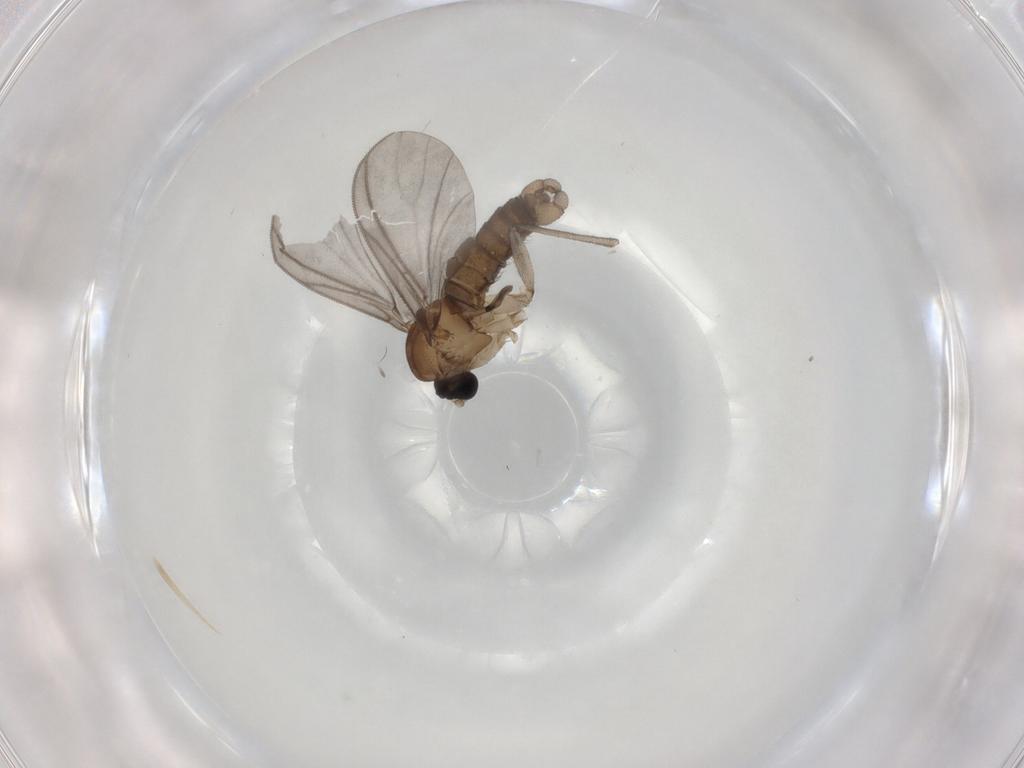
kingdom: Animalia
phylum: Arthropoda
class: Insecta
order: Diptera
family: Sciaridae
